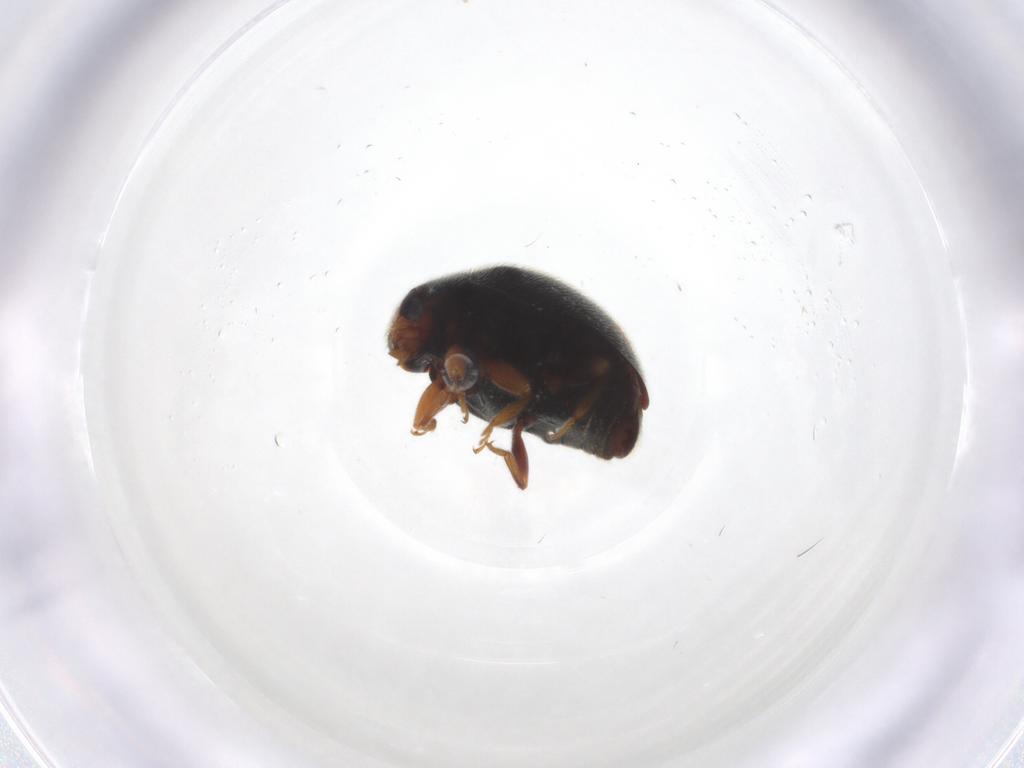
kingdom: Animalia
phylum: Arthropoda
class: Insecta
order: Coleoptera
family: Coccinellidae
